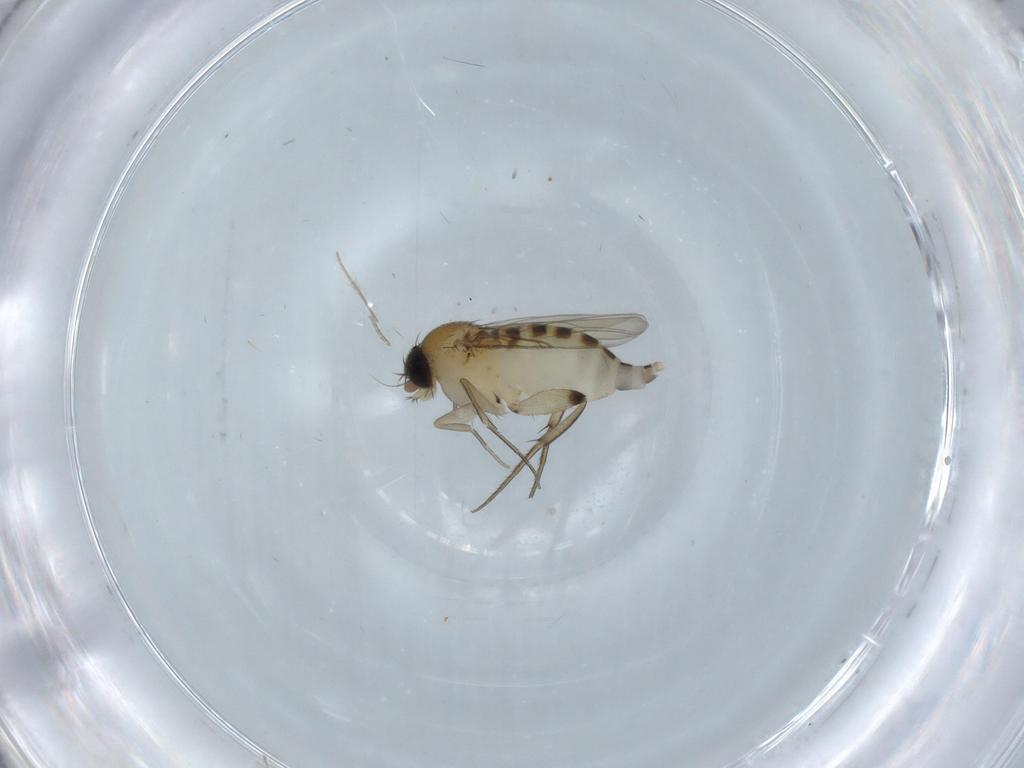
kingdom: Animalia
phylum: Arthropoda
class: Insecta
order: Diptera
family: Phoridae
